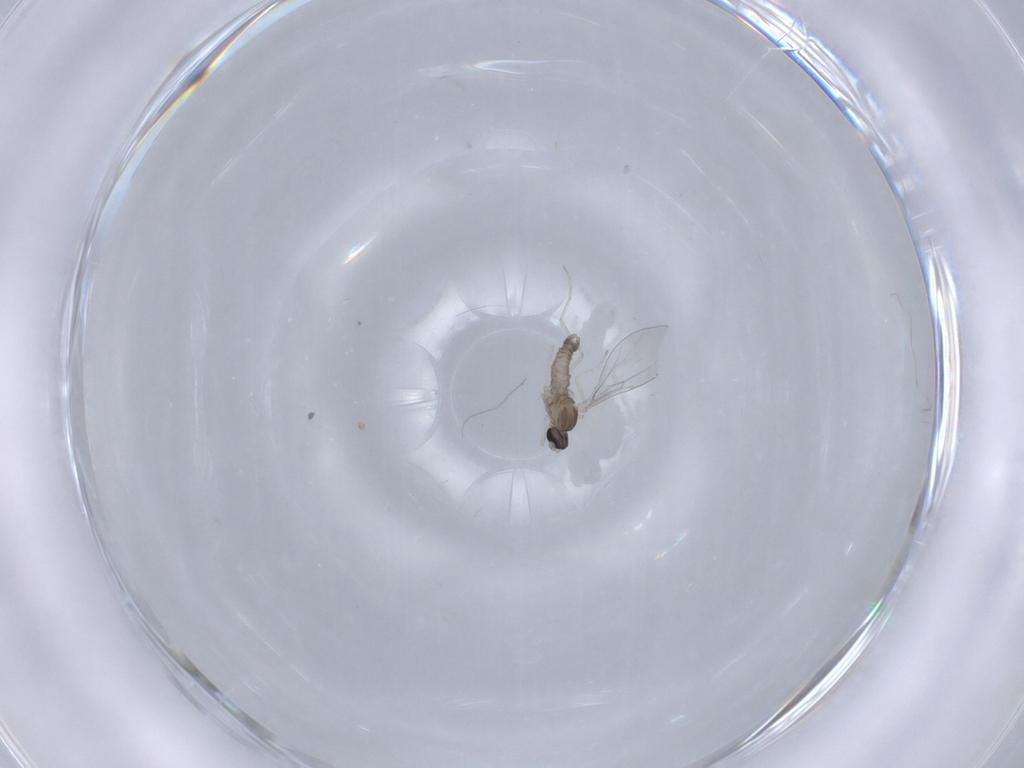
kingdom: Animalia
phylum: Arthropoda
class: Insecta
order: Diptera
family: Cecidomyiidae
